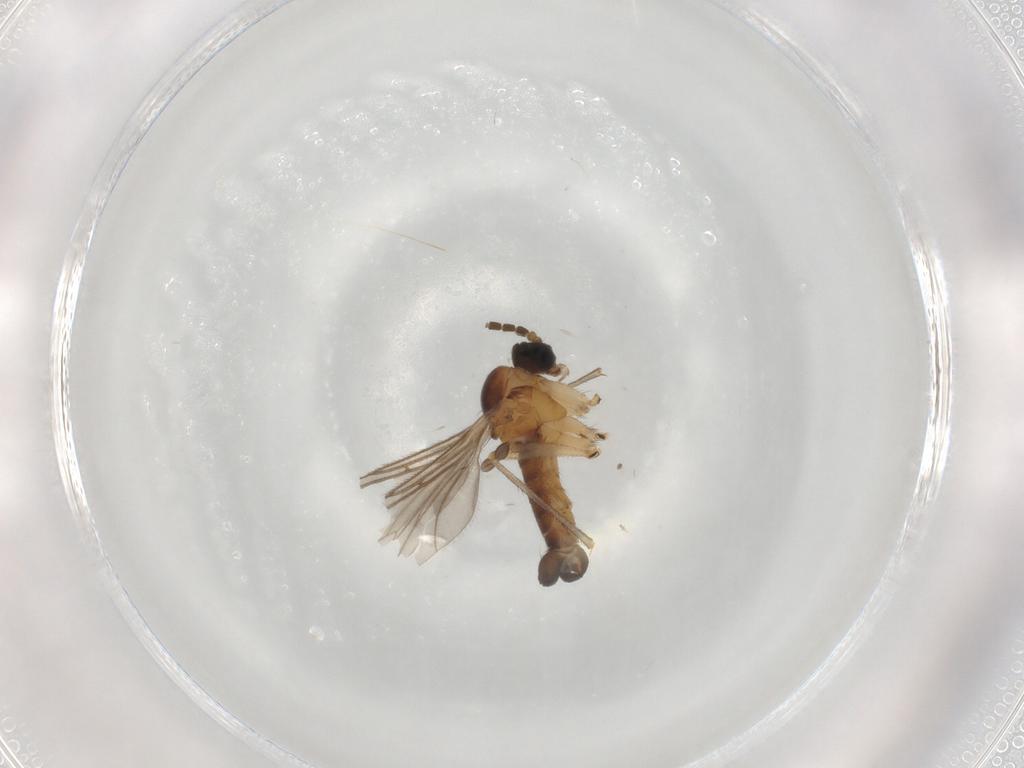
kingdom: Animalia
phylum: Arthropoda
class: Insecta
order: Diptera
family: Sciaridae
